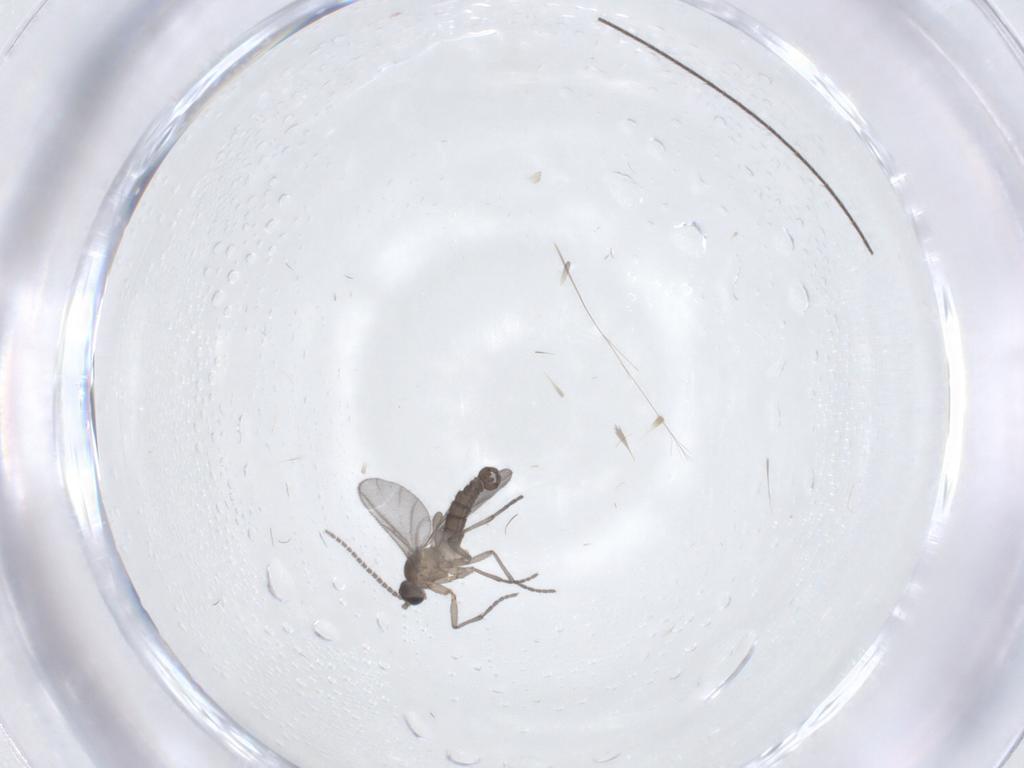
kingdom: Animalia
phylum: Arthropoda
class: Insecta
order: Diptera
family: Sciaridae
